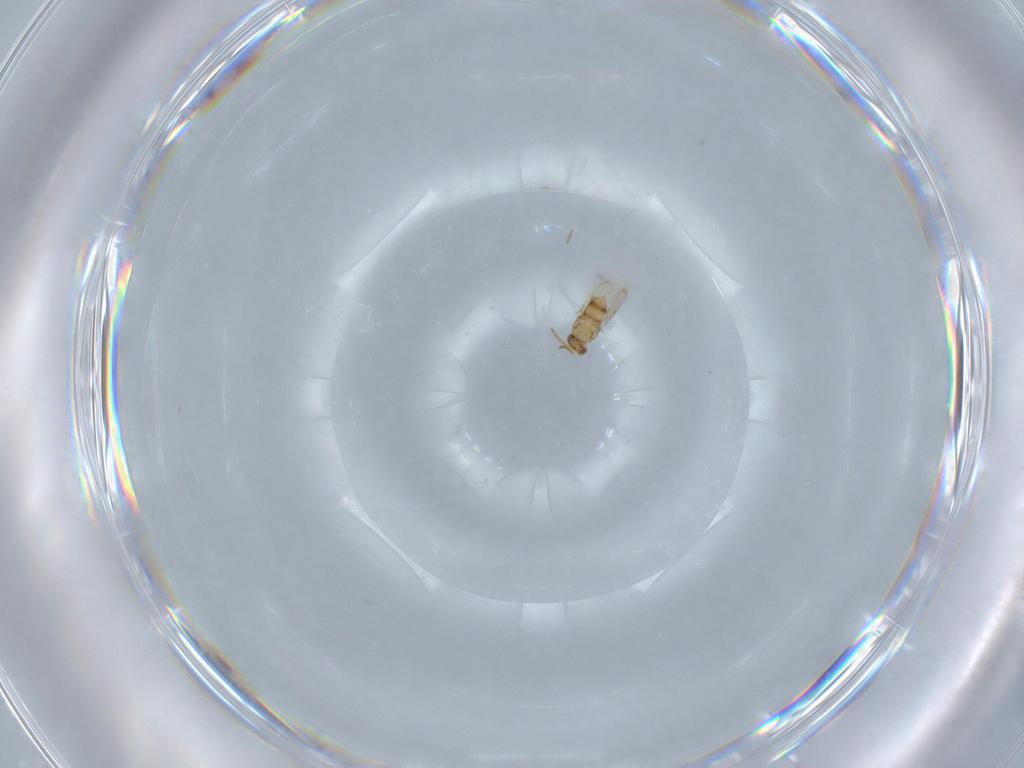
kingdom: Animalia
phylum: Arthropoda
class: Insecta
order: Hymenoptera
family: Aphelinidae
